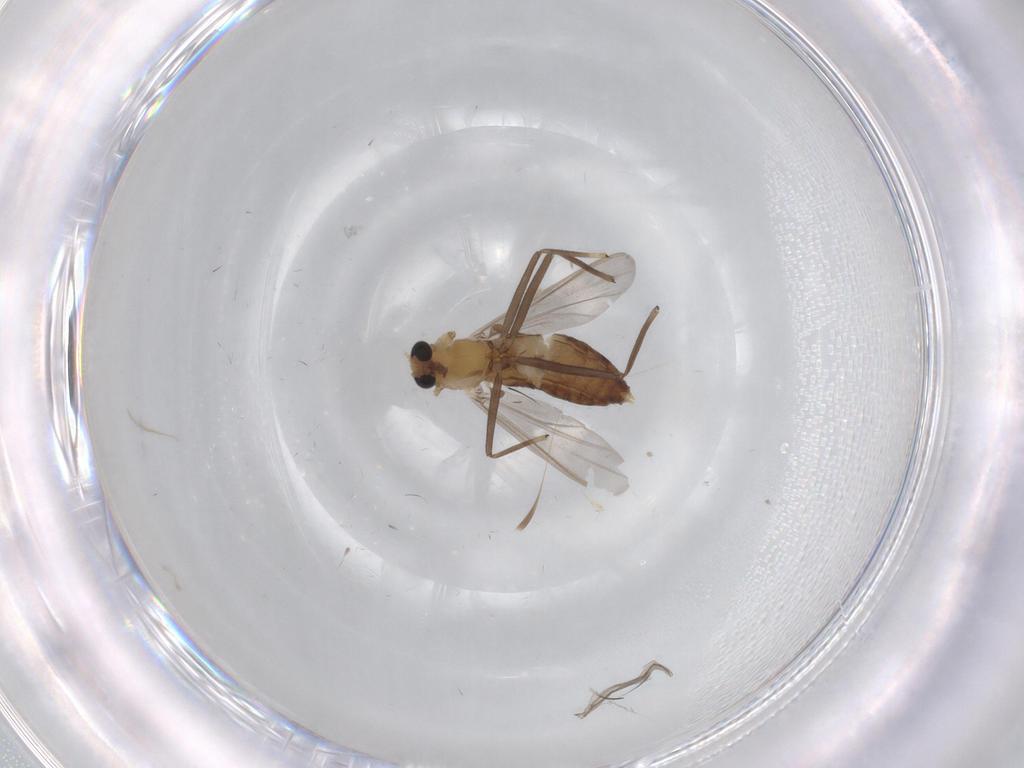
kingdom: Animalia
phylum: Arthropoda
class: Insecta
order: Diptera
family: Chironomidae
